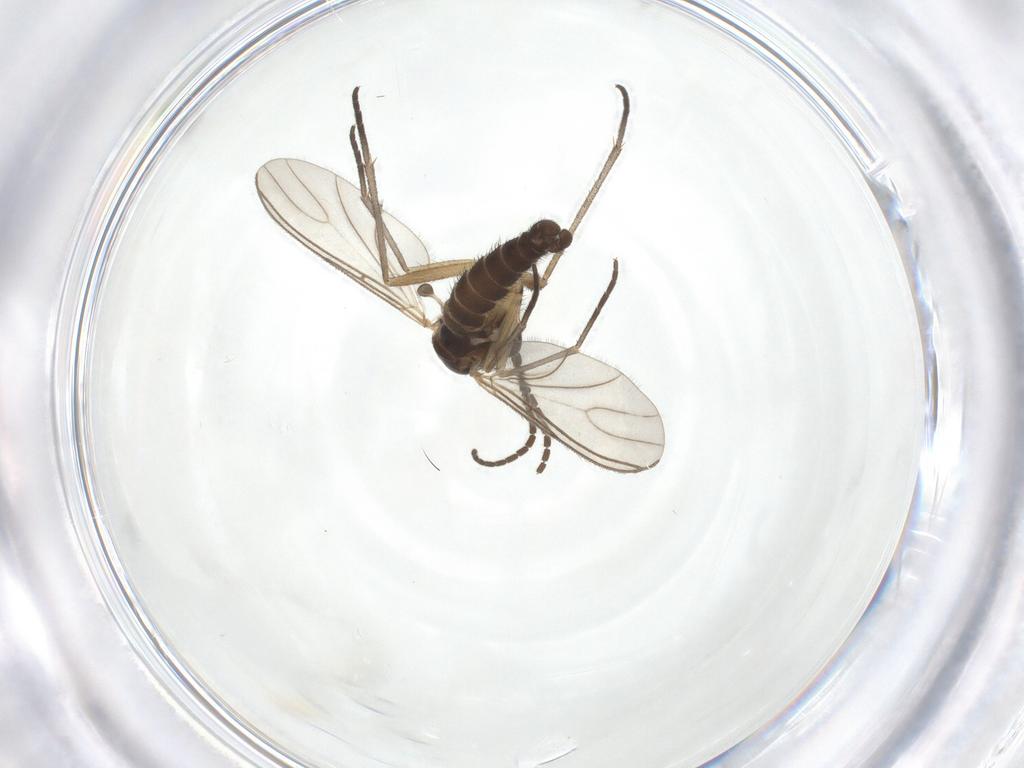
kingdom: Animalia
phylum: Arthropoda
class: Insecta
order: Diptera
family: Sciaridae
